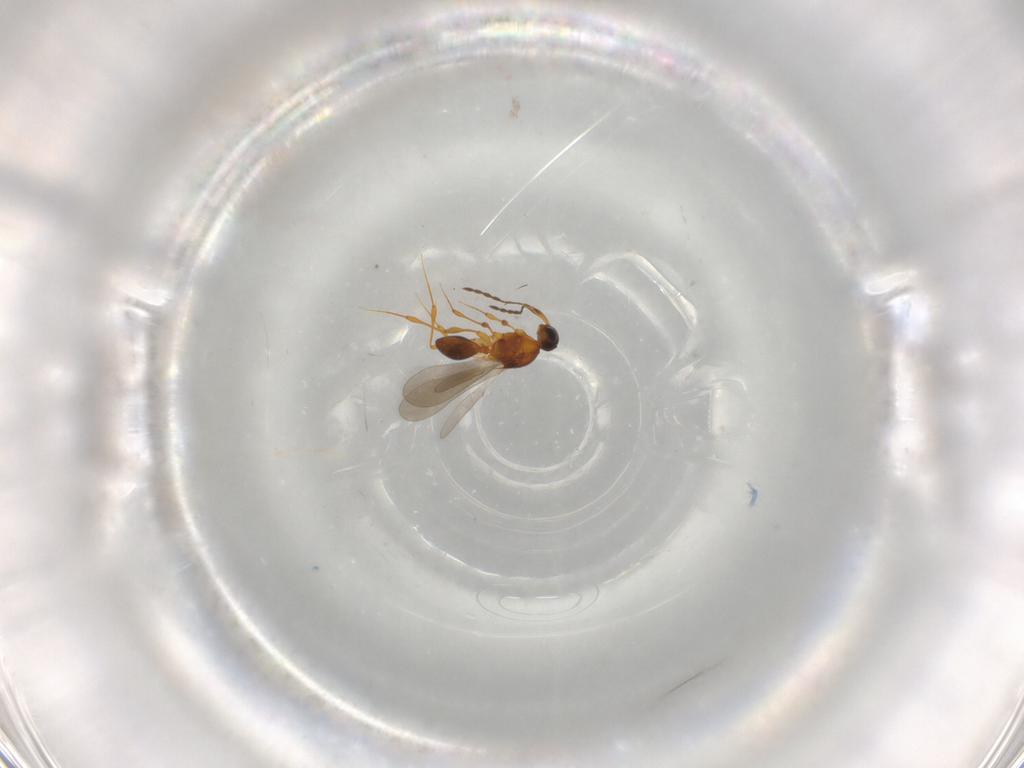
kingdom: Animalia
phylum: Arthropoda
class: Insecta
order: Hymenoptera
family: Platygastridae
